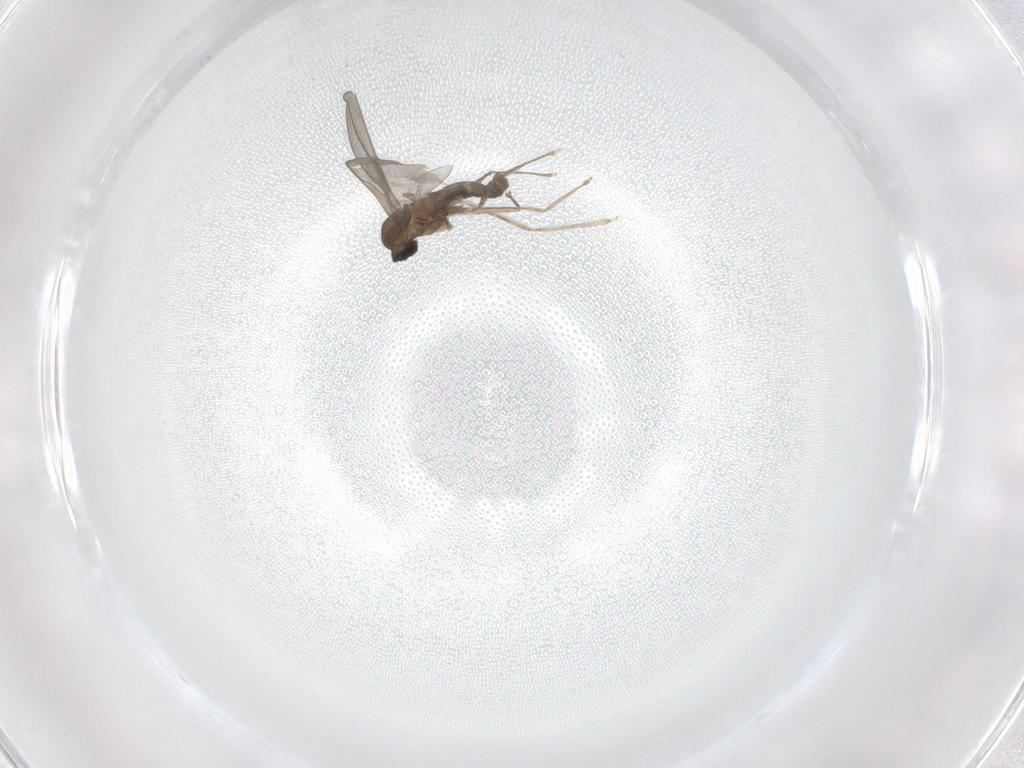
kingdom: Animalia
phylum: Arthropoda
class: Insecta
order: Diptera
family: Cecidomyiidae
